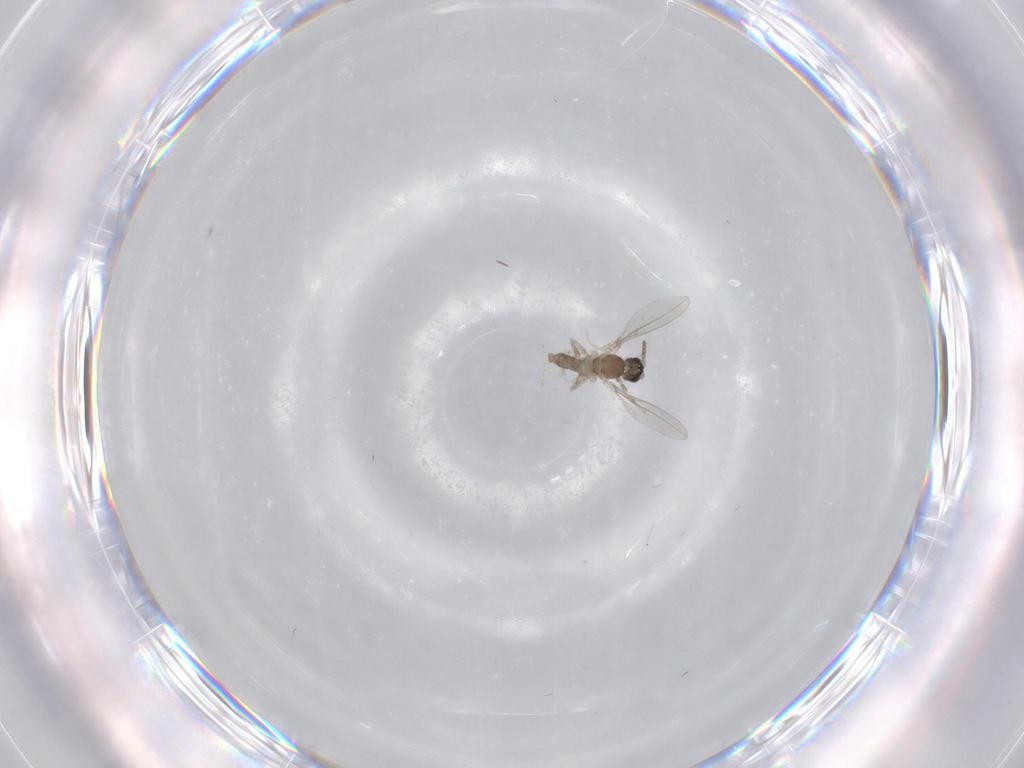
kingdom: Animalia
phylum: Arthropoda
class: Insecta
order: Diptera
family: Cecidomyiidae
